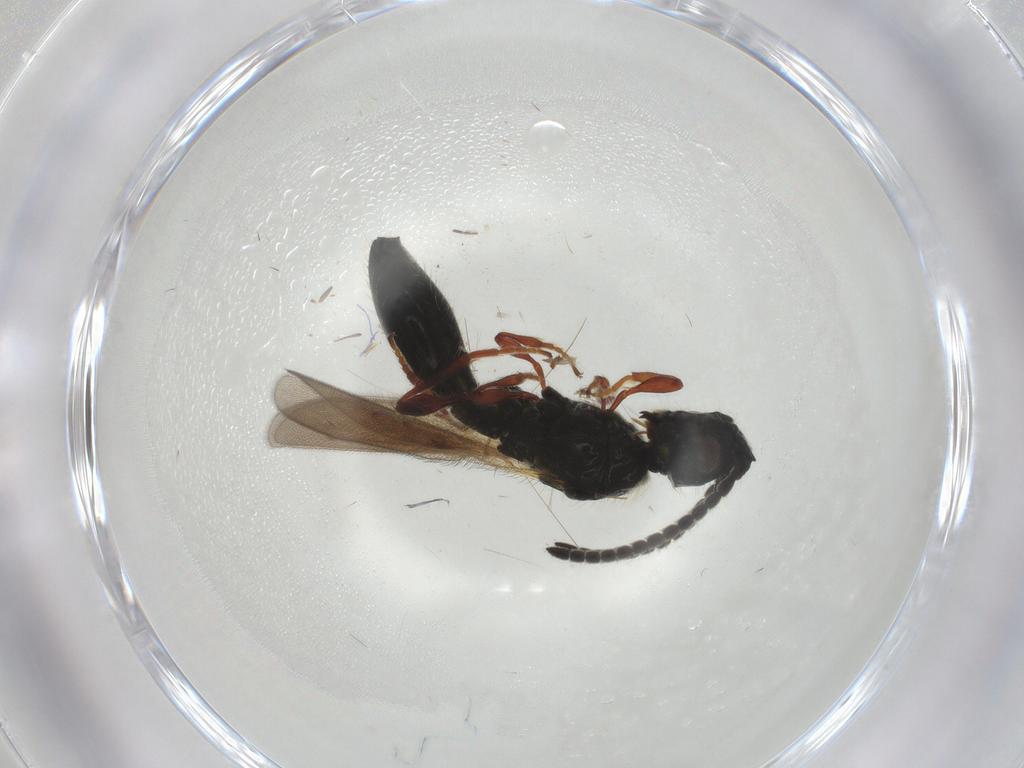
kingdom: Animalia
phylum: Arthropoda
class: Insecta
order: Hymenoptera
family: Diapriidae
